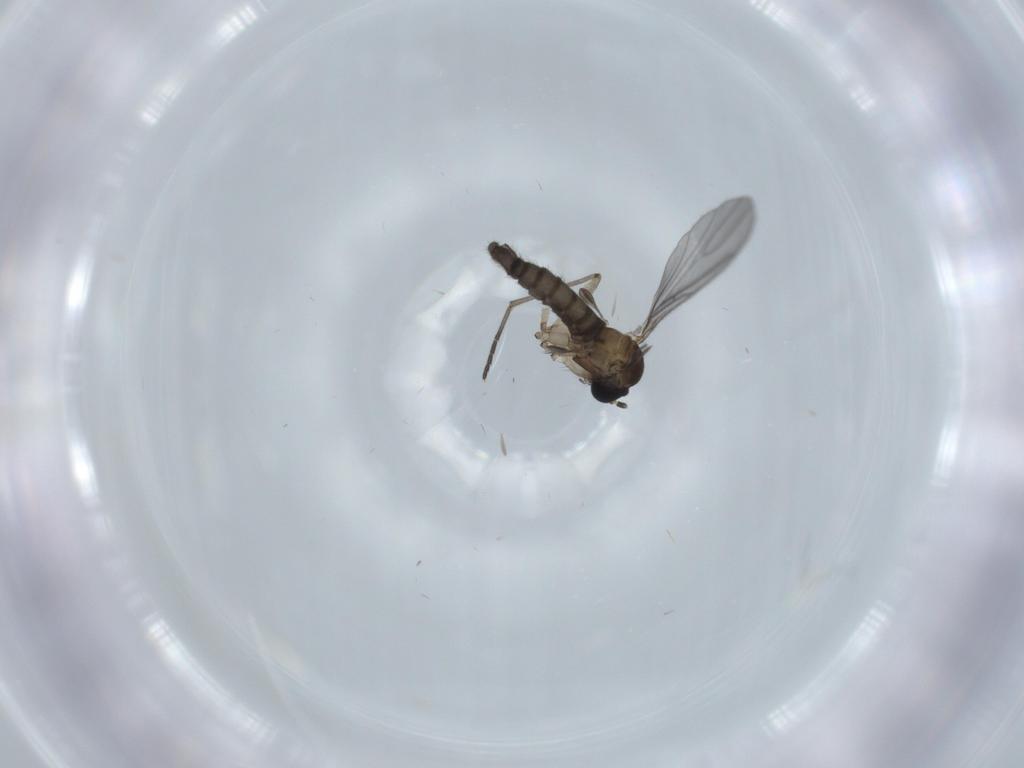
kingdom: Animalia
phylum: Arthropoda
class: Insecta
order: Diptera
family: Sciaridae
